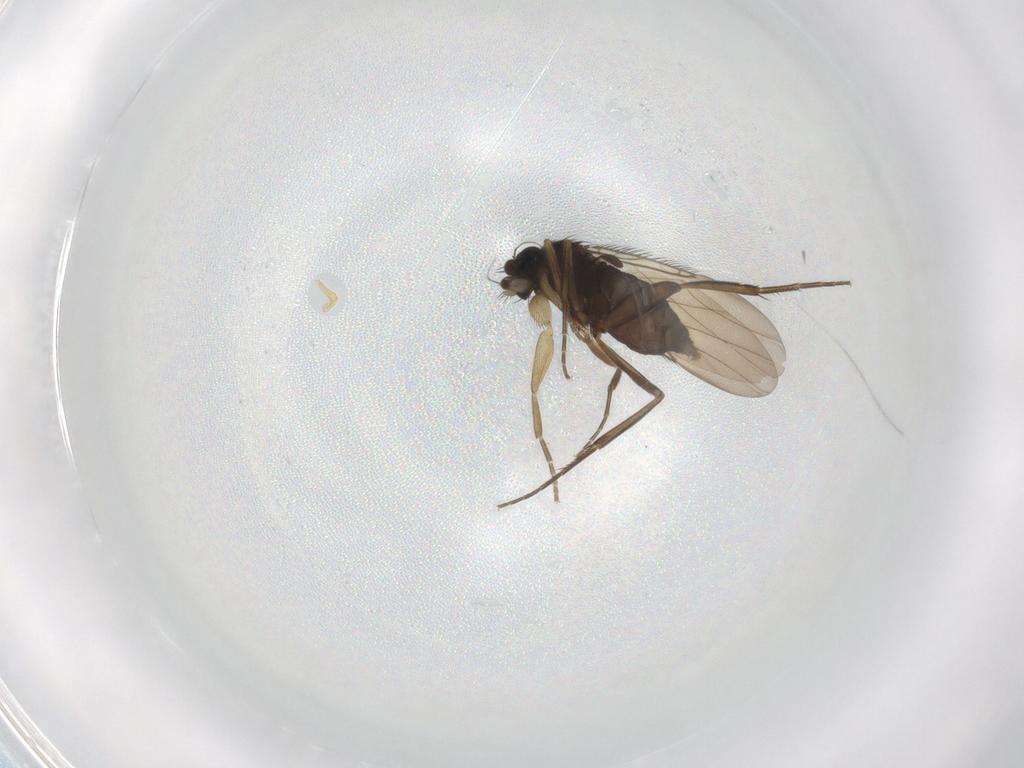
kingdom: Animalia
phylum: Arthropoda
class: Insecta
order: Diptera
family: Phoridae
